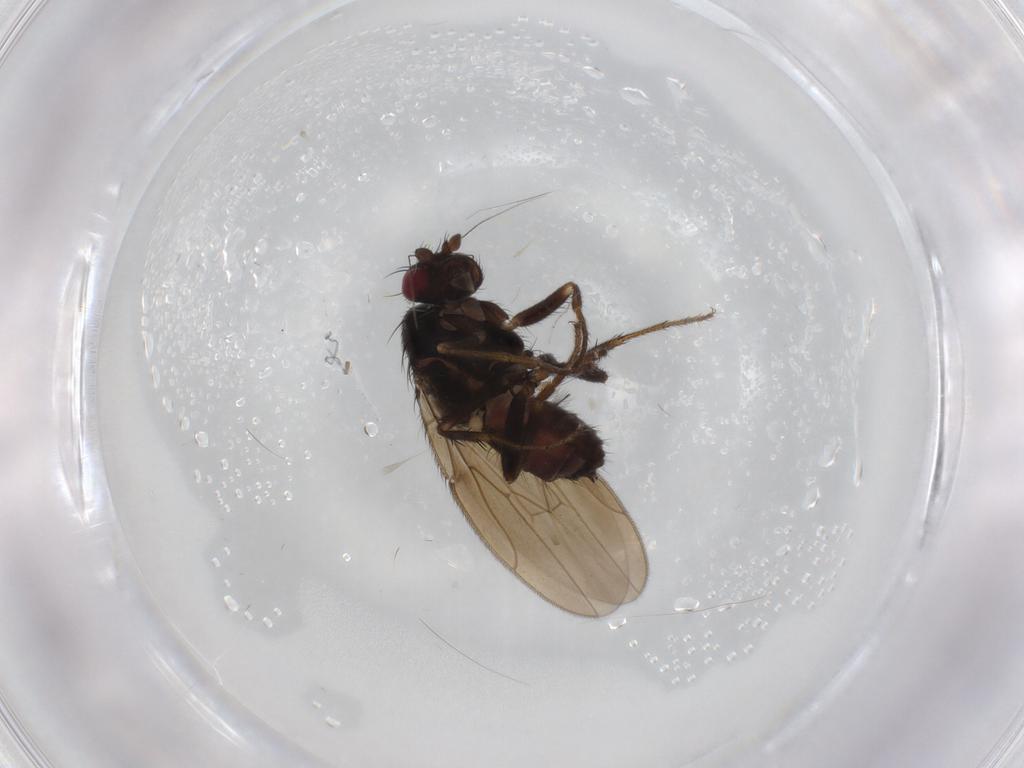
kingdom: Animalia
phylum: Arthropoda
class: Insecta
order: Diptera
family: Sphaeroceridae
